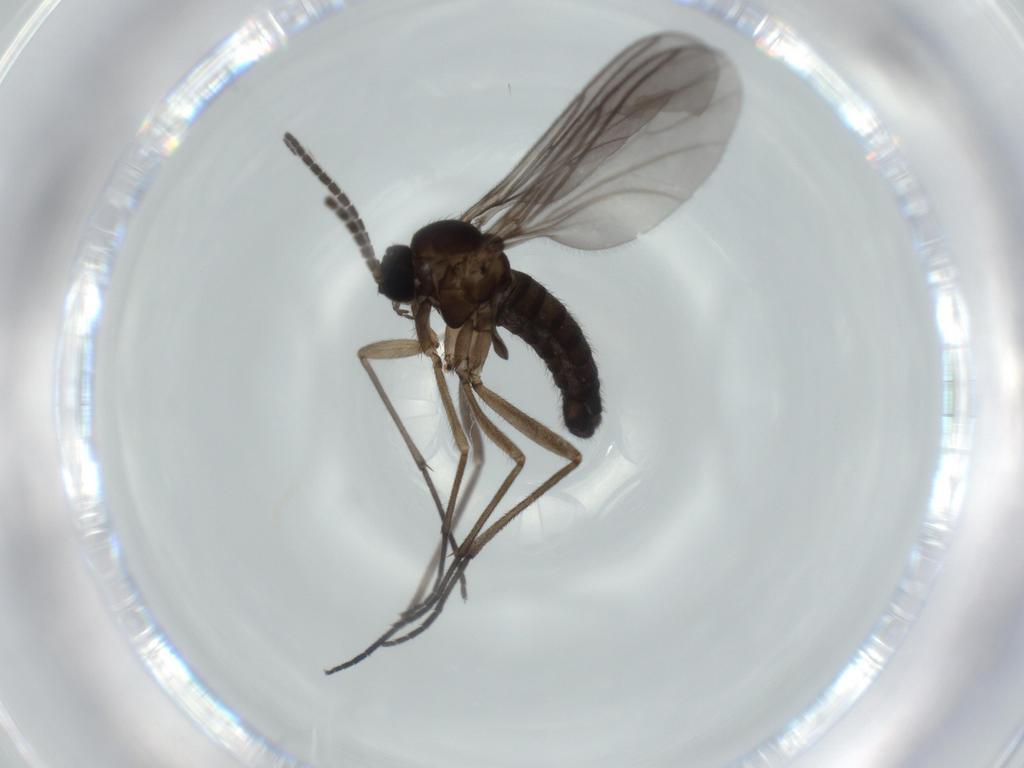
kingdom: Animalia
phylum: Arthropoda
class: Insecta
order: Diptera
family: Sciaridae
